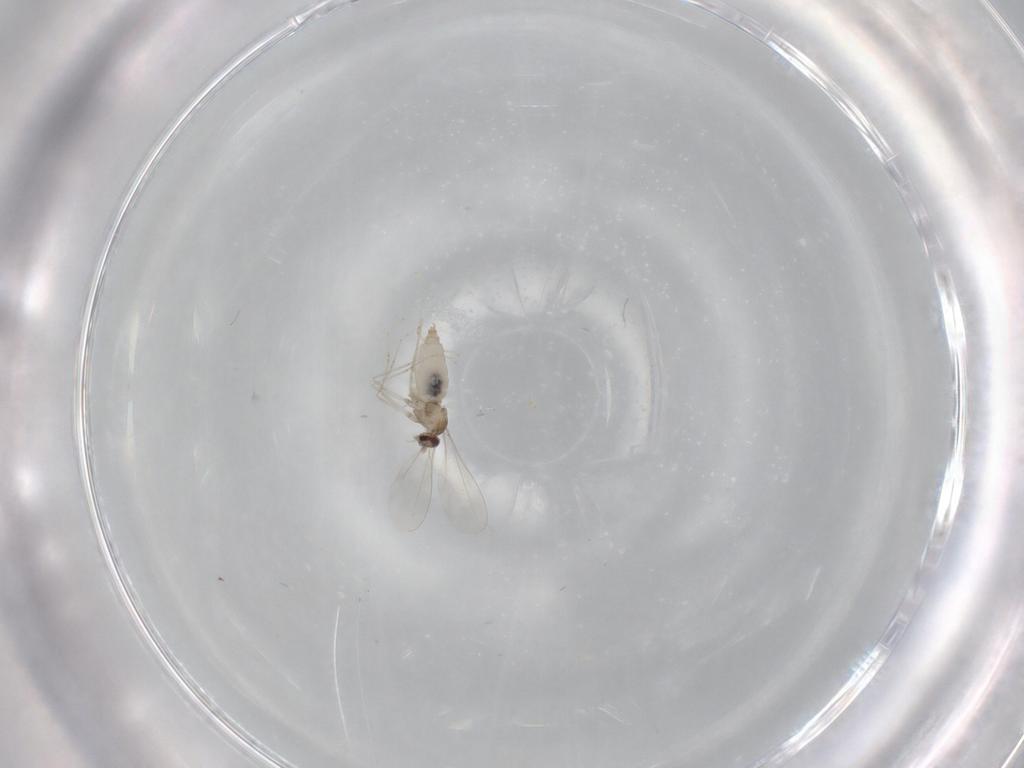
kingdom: Animalia
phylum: Arthropoda
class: Insecta
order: Diptera
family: Cecidomyiidae
